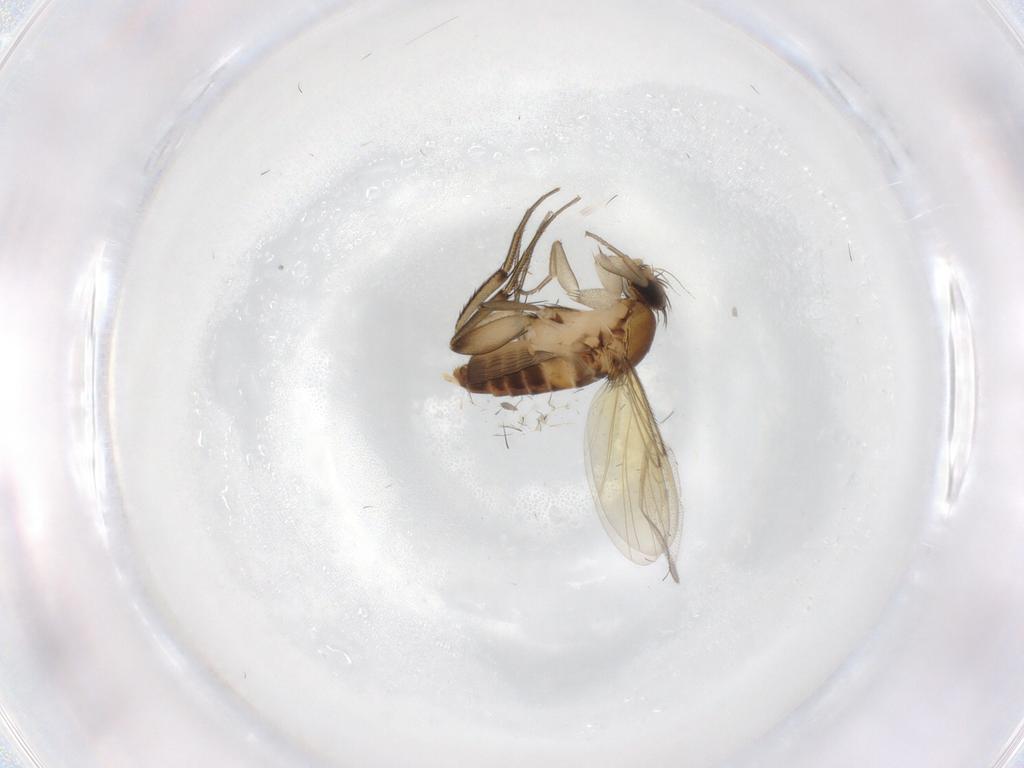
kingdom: Animalia
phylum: Arthropoda
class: Insecta
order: Diptera
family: Phoridae
